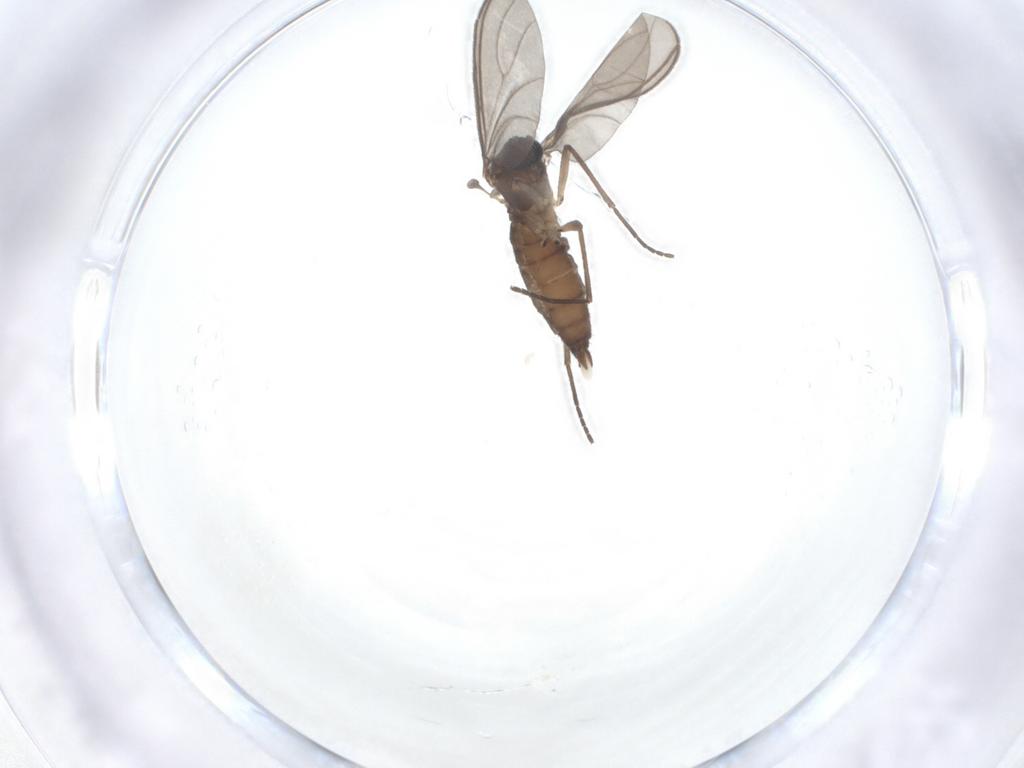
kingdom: Animalia
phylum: Arthropoda
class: Insecta
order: Diptera
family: Sciaridae
